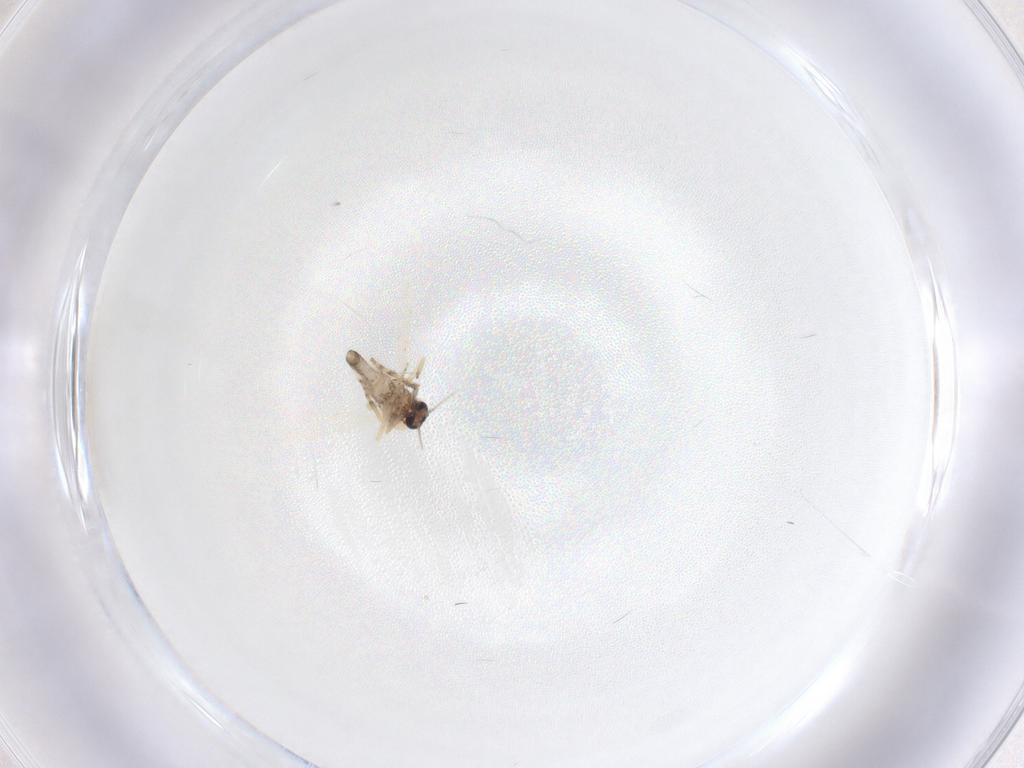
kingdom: Animalia
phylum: Arthropoda
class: Insecta
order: Diptera
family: Ceratopogonidae
